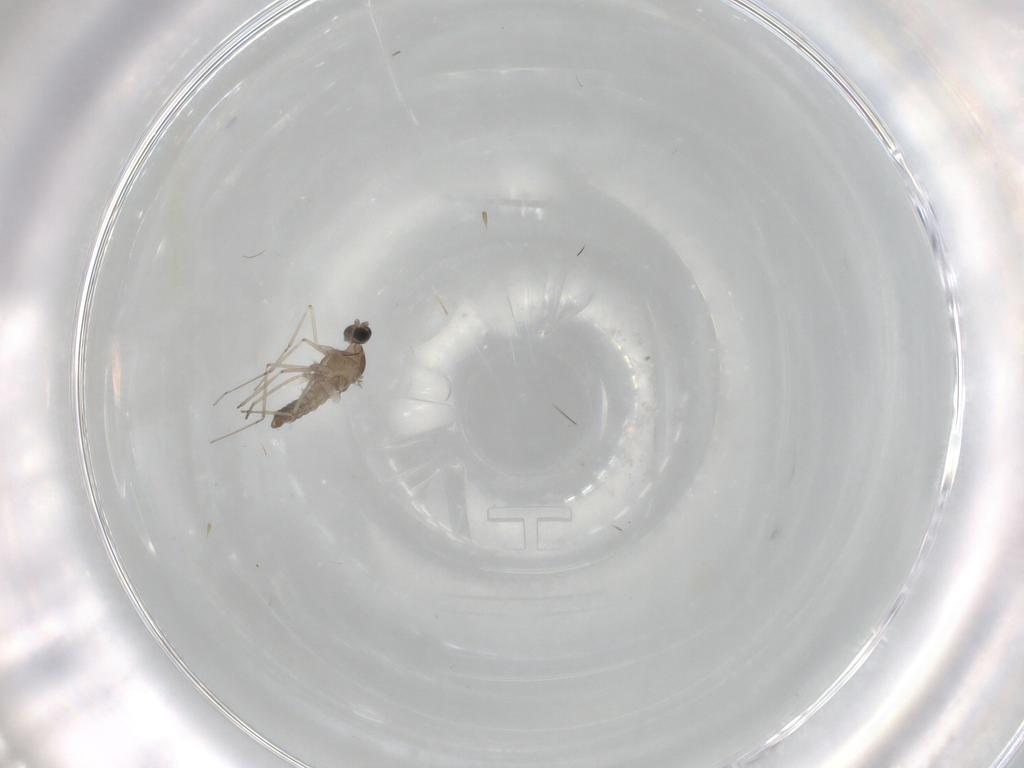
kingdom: Animalia
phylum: Arthropoda
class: Insecta
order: Diptera
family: Cecidomyiidae
